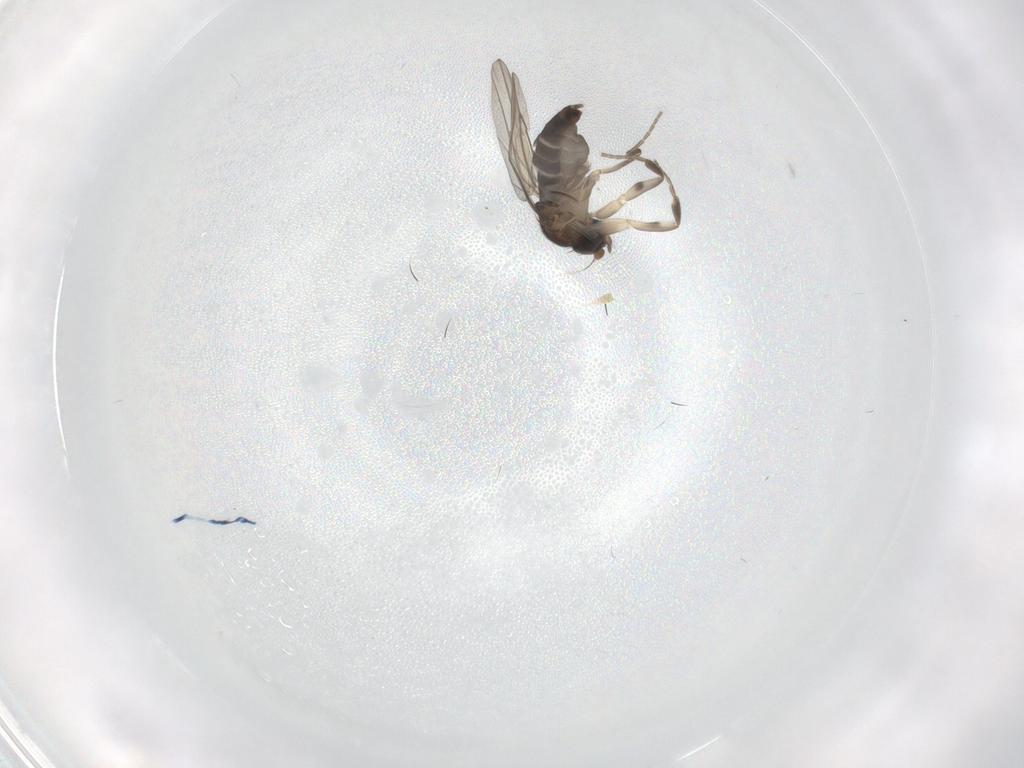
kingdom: Animalia
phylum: Arthropoda
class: Insecta
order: Diptera
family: Phoridae
